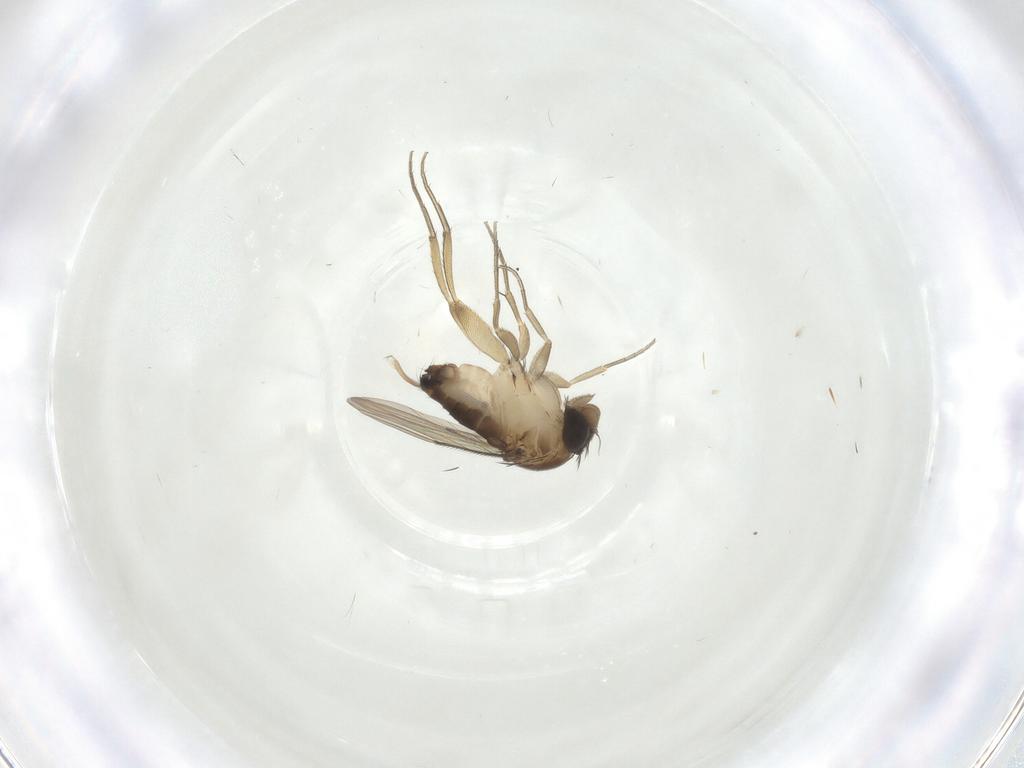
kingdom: Animalia
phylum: Arthropoda
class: Insecta
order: Diptera
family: Phoridae
